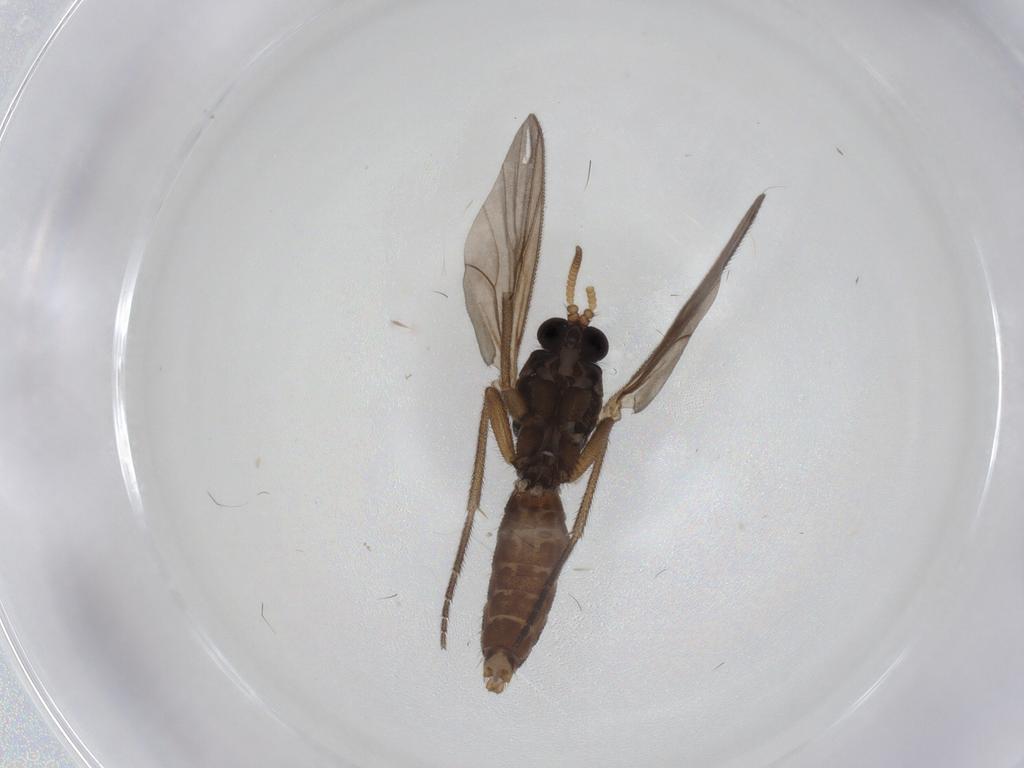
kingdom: Animalia
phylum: Arthropoda
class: Insecta
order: Diptera
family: Mycetophilidae
